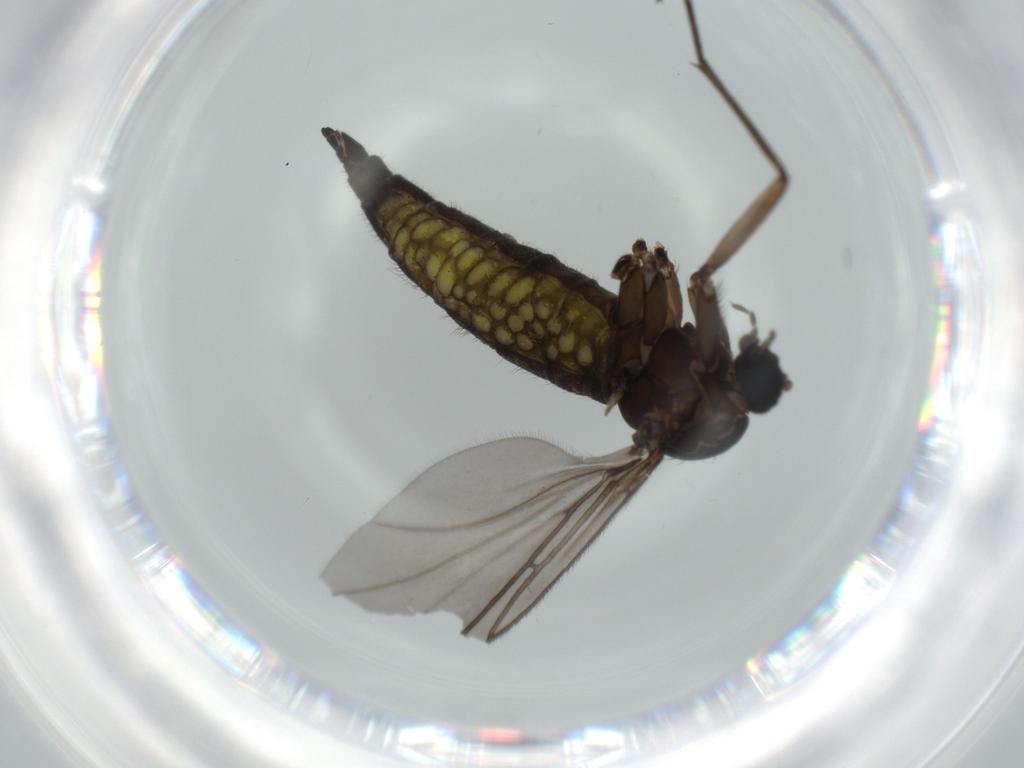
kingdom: Animalia
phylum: Arthropoda
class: Insecta
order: Diptera
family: Sciaridae
